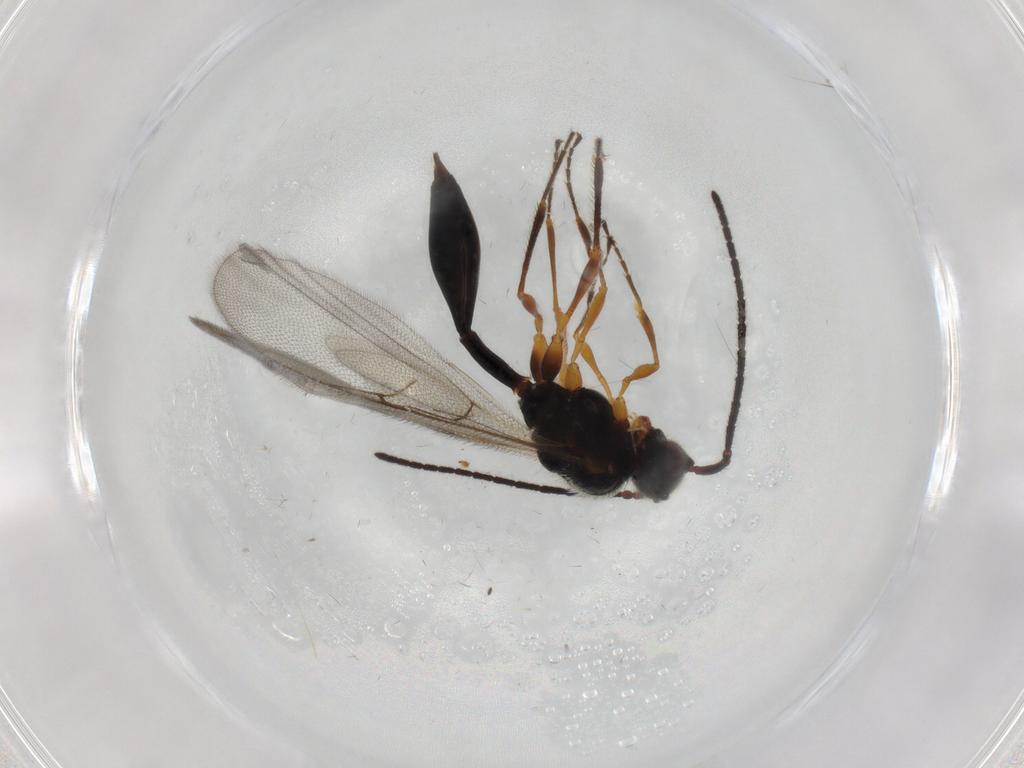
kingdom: Animalia
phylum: Arthropoda
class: Insecta
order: Hymenoptera
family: Diapriidae
